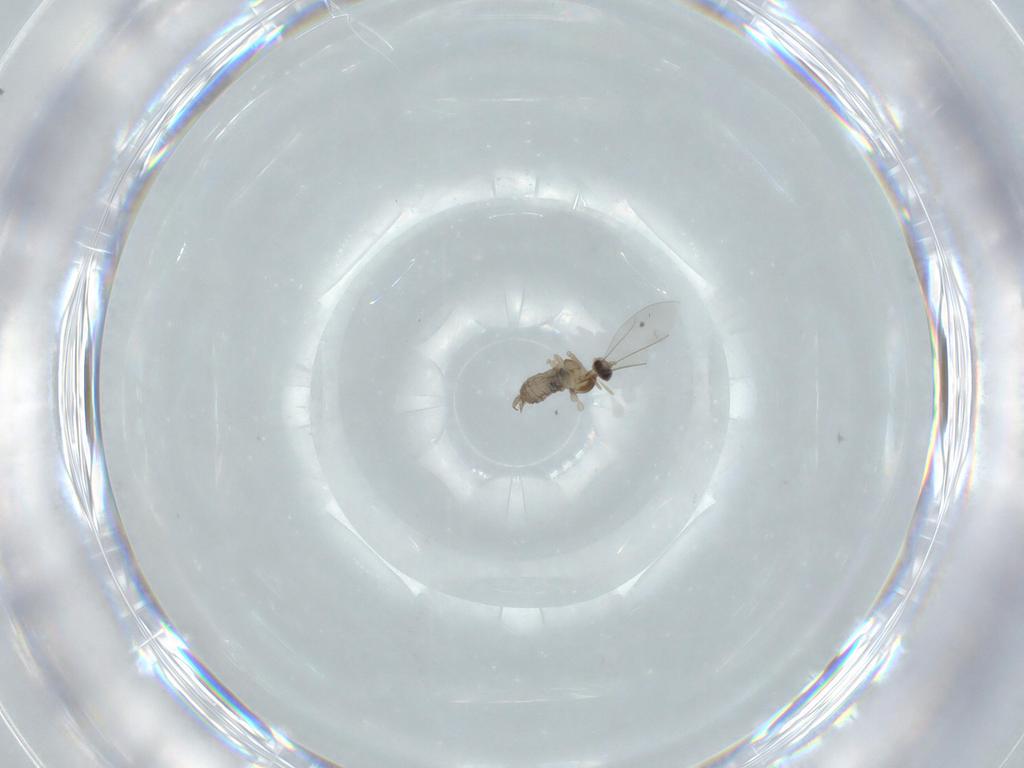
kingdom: Animalia
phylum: Arthropoda
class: Insecta
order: Diptera
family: Cecidomyiidae
